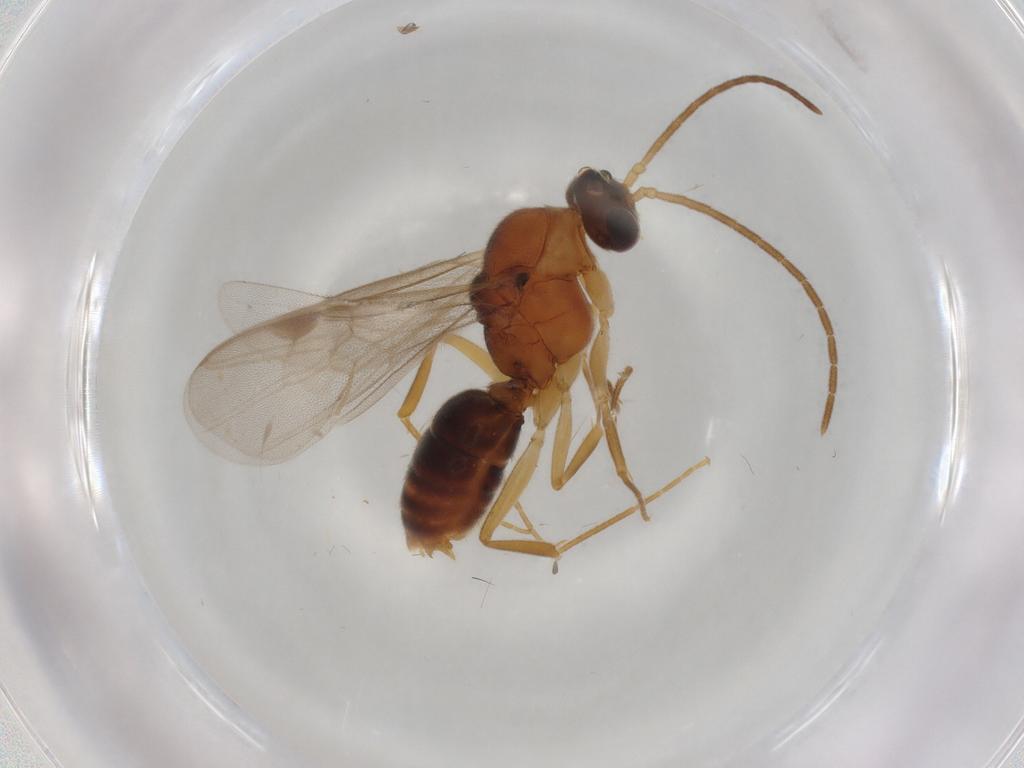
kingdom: Animalia
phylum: Arthropoda
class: Insecta
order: Hymenoptera
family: Formicidae
